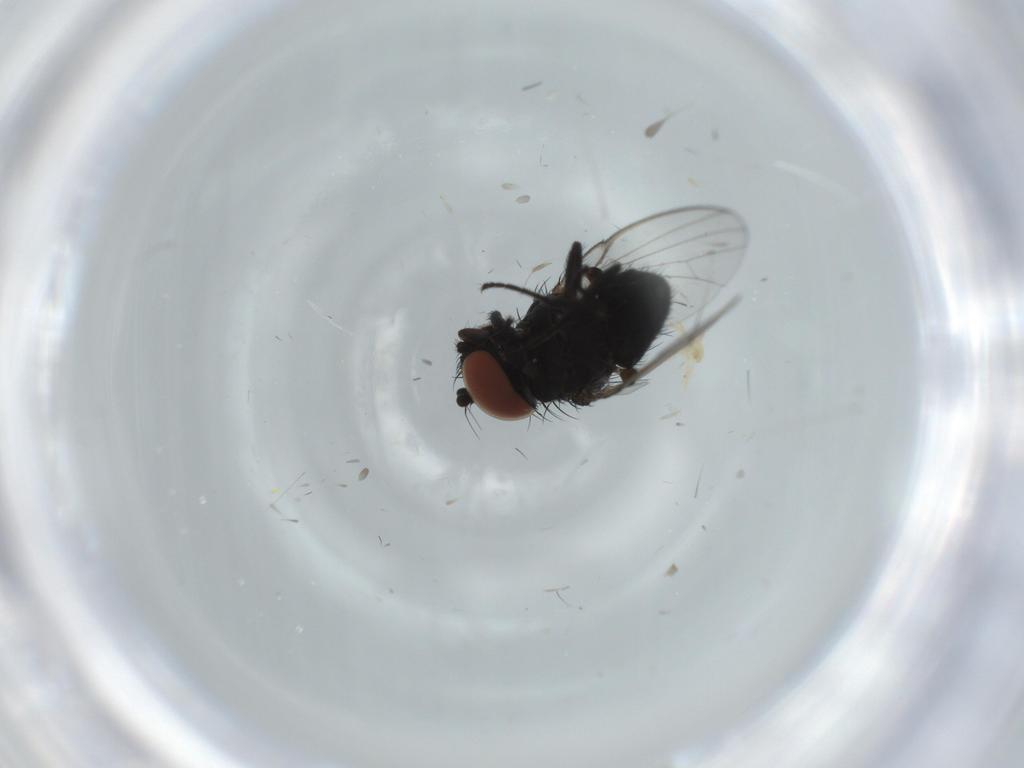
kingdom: Animalia
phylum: Arthropoda
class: Insecta
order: Diptera
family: Milichiidae
